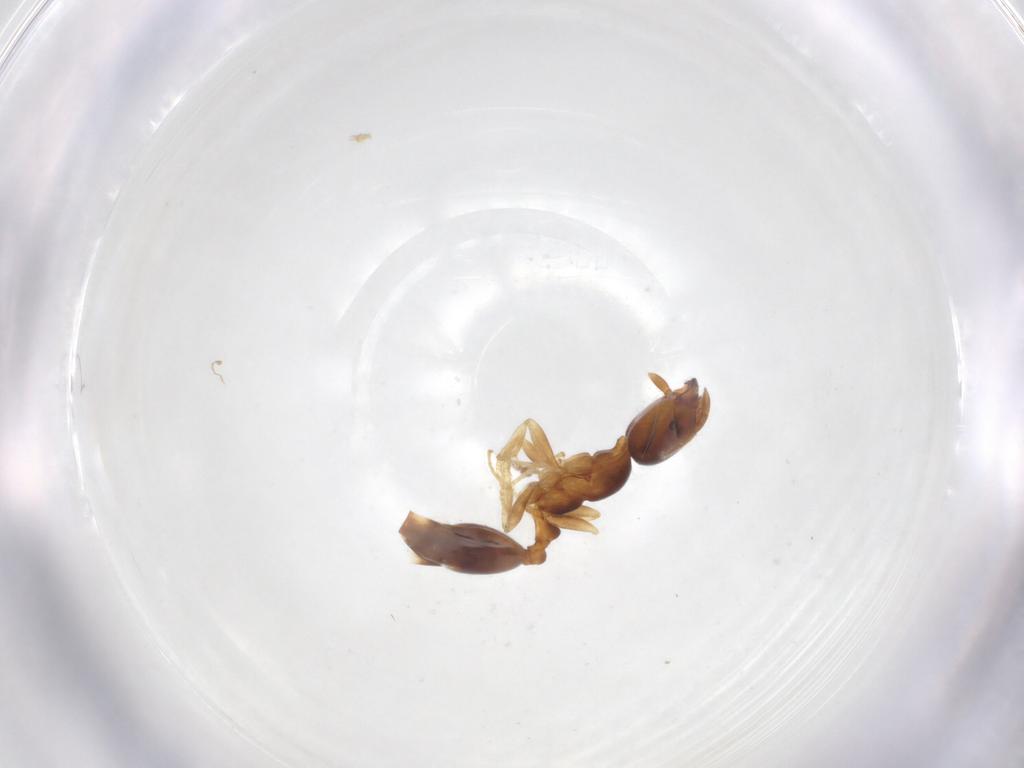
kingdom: Animalia
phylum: Arthropoda
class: Insecta
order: Hymenoptera
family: Formicidae
